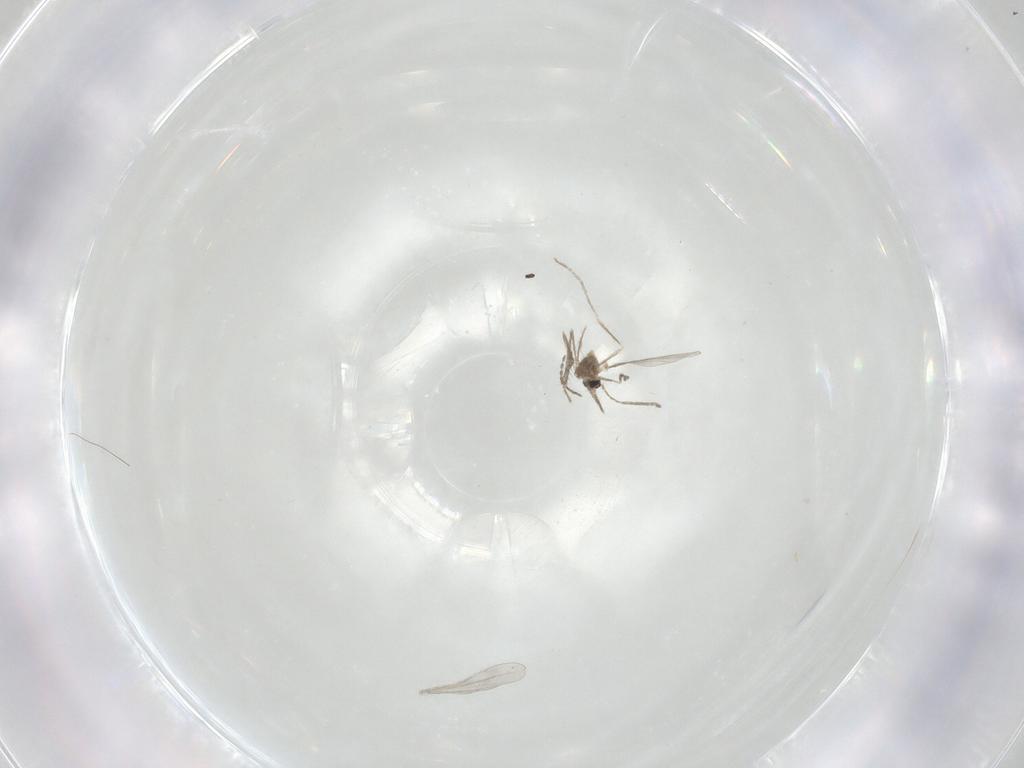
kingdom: Animalia
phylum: Arthropoda
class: Insecta
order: Diptera
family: Cecidomyiidae
